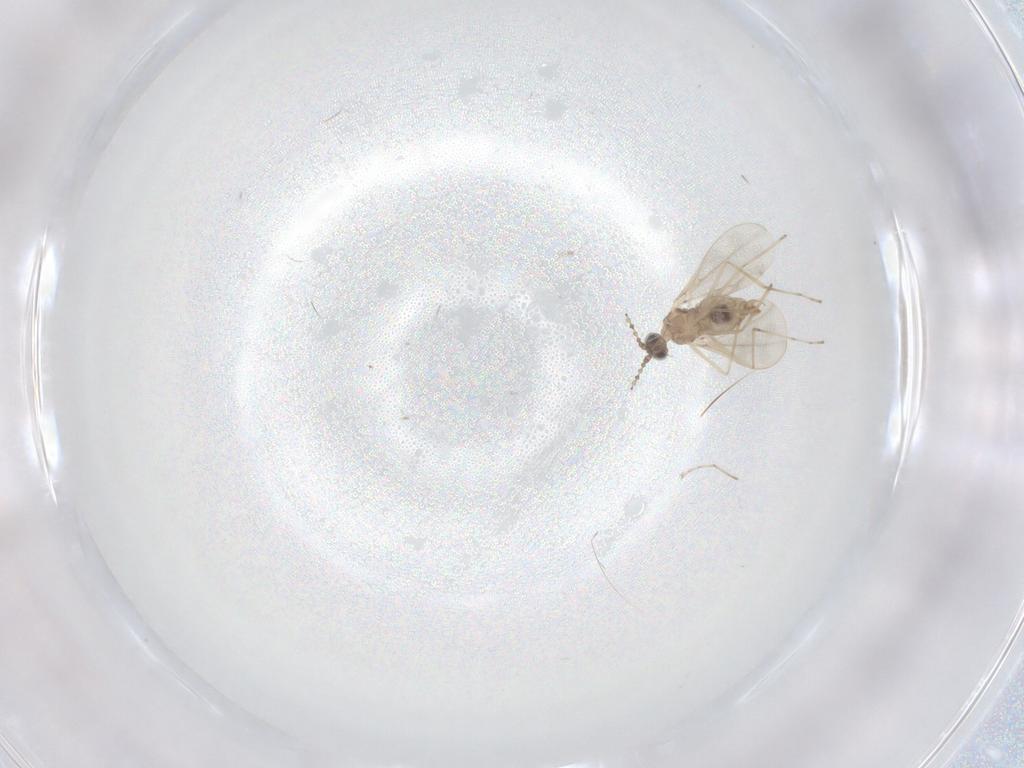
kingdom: Animalia
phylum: Arthropoda
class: Insecta
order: Diptera
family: Cecidomyiidae
